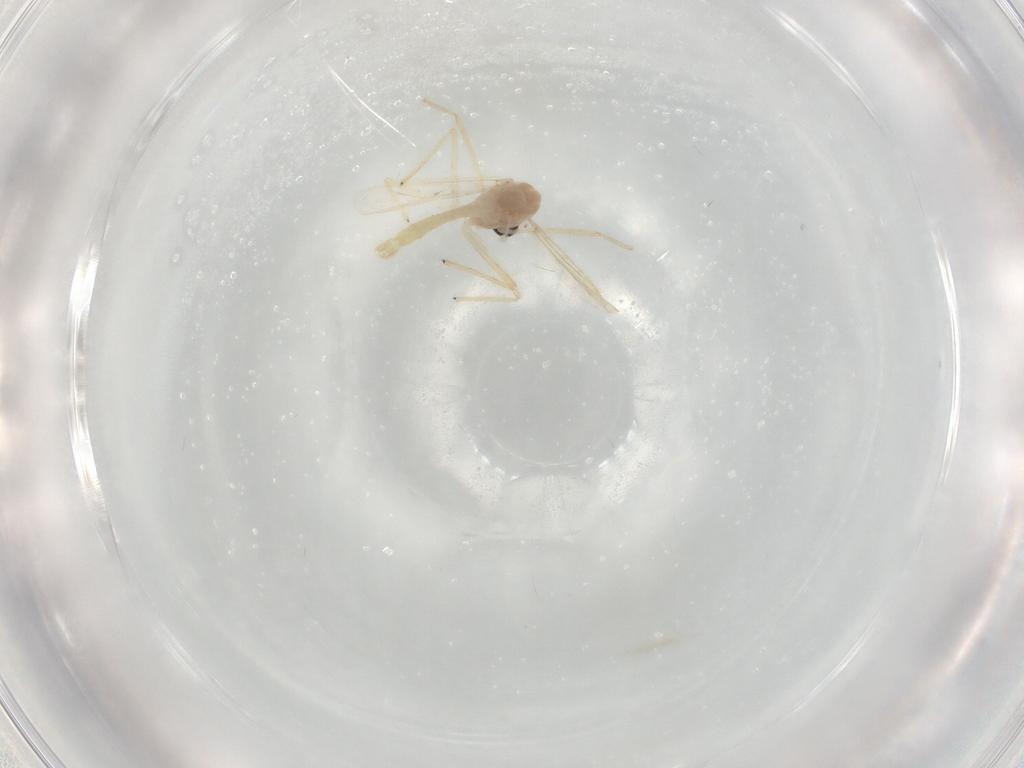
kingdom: Animalia
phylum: Arthropoda
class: Insecta
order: Diptera
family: Chironomidae
